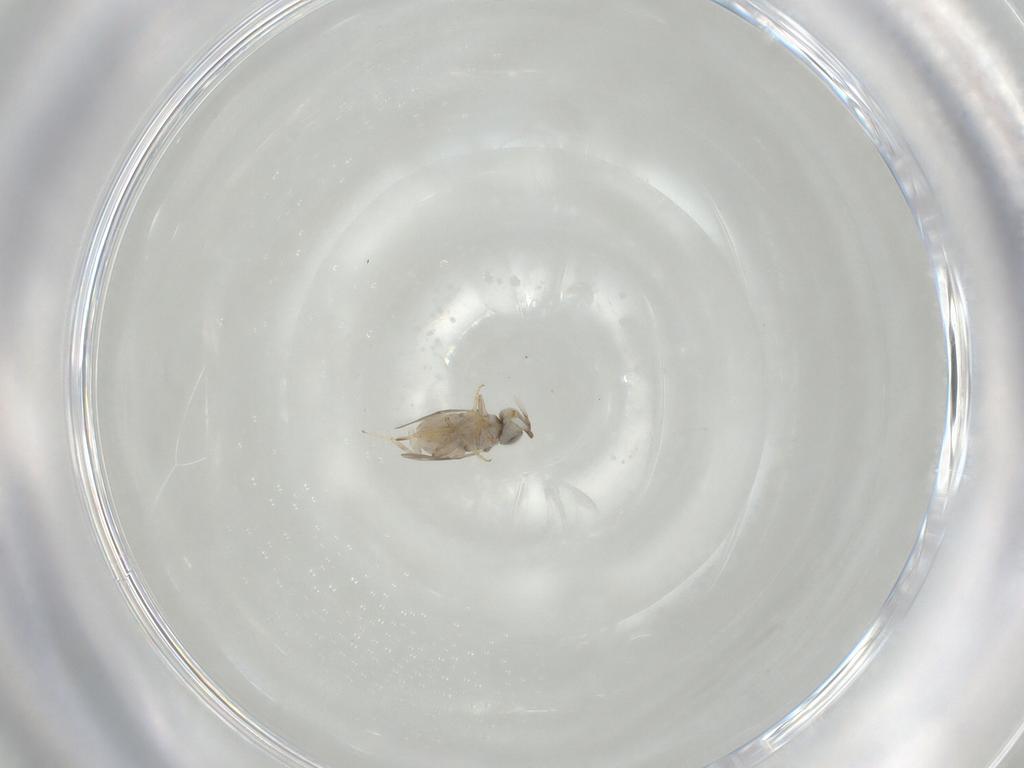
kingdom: Animalia
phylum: Arthropoda
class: Insecta
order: Hymenoptera
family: Encyrtidae
